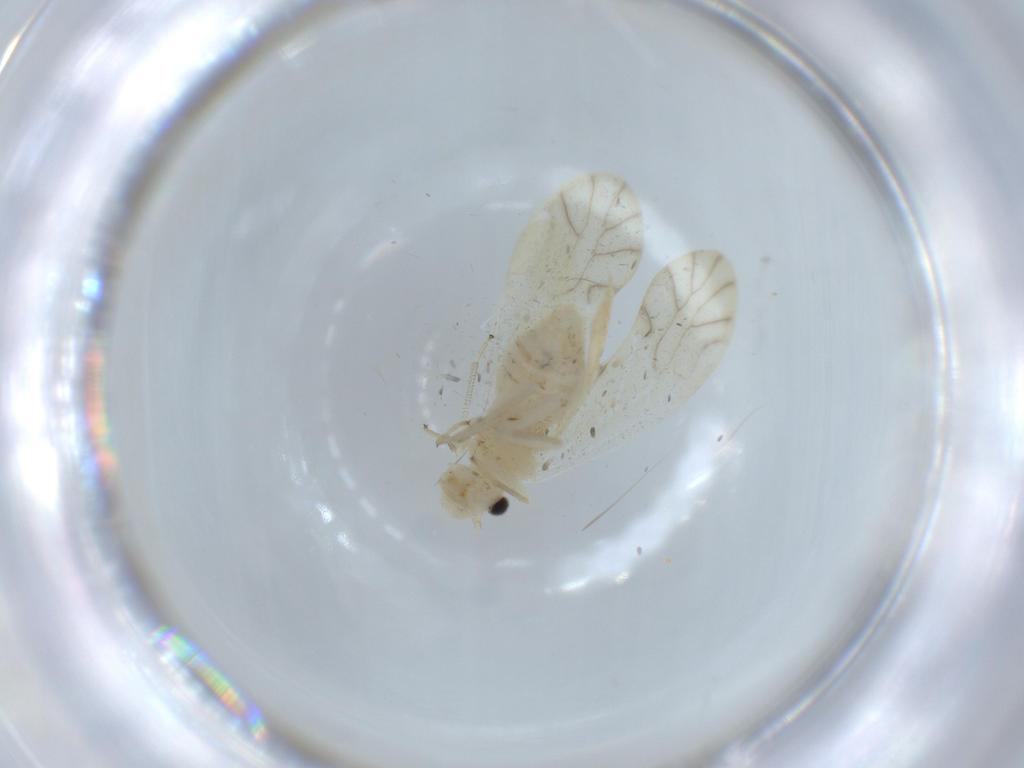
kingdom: Animalia
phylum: Arthropoda
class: Insecta
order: Psocodea
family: Caeciliusidae
